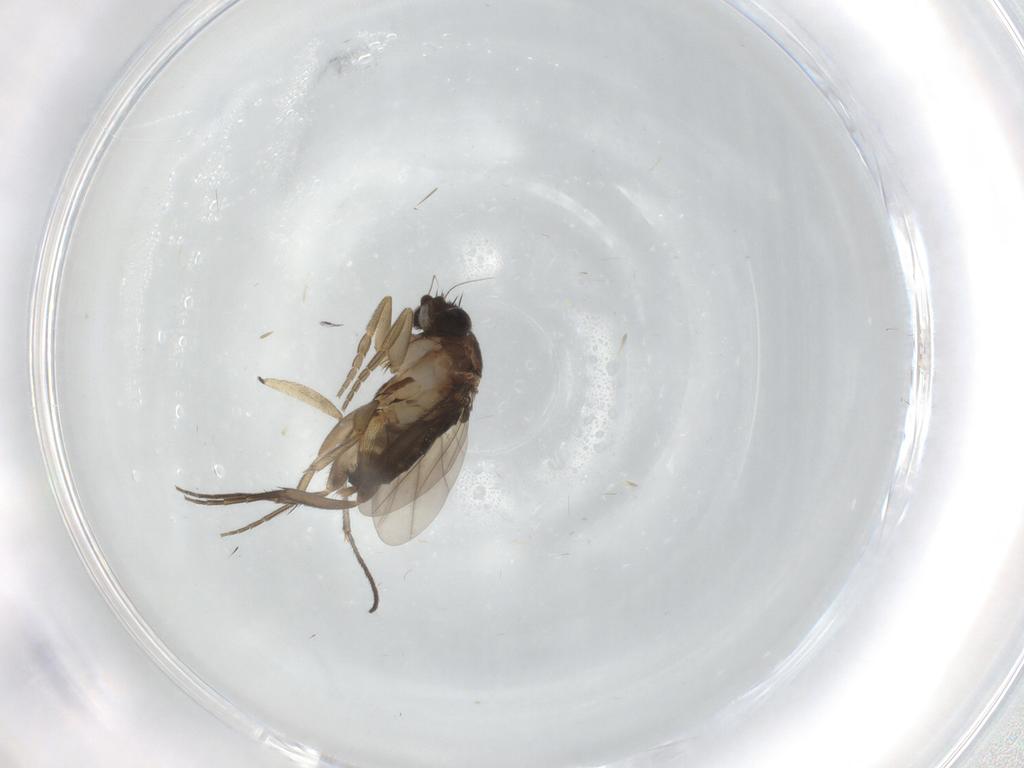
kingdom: Animalia
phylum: Arthropoda
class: Insecta
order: Diptera
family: Phoridae
